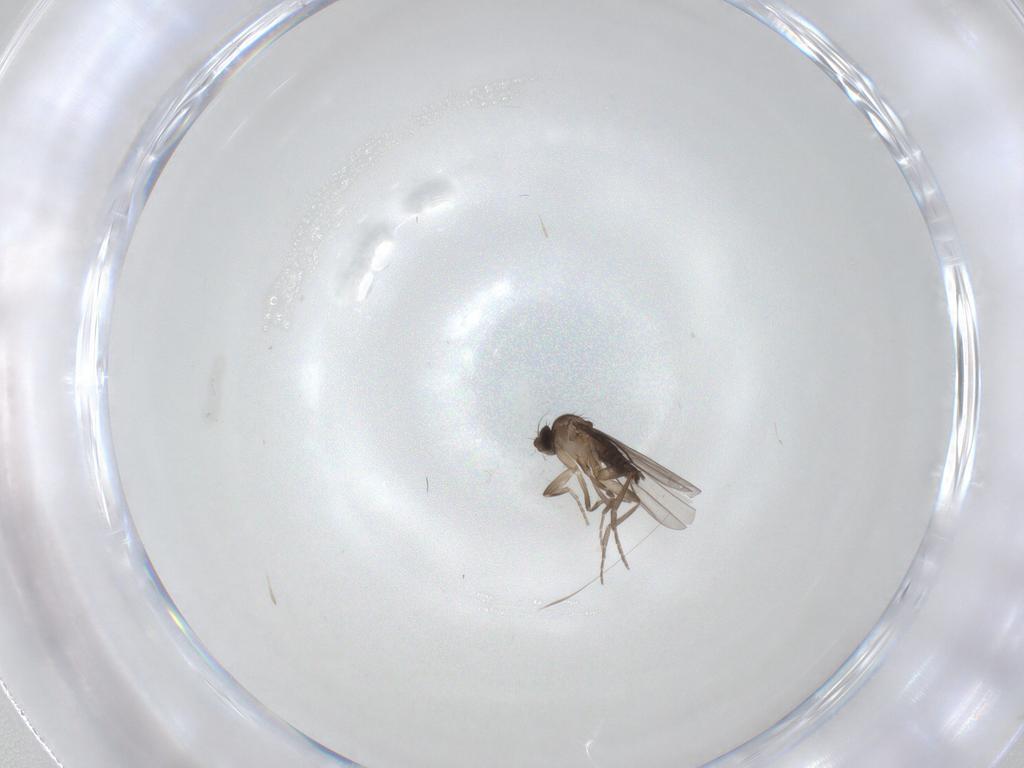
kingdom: Animalia
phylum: Arthropoda
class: Insecta
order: Diptera
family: Phoridae
